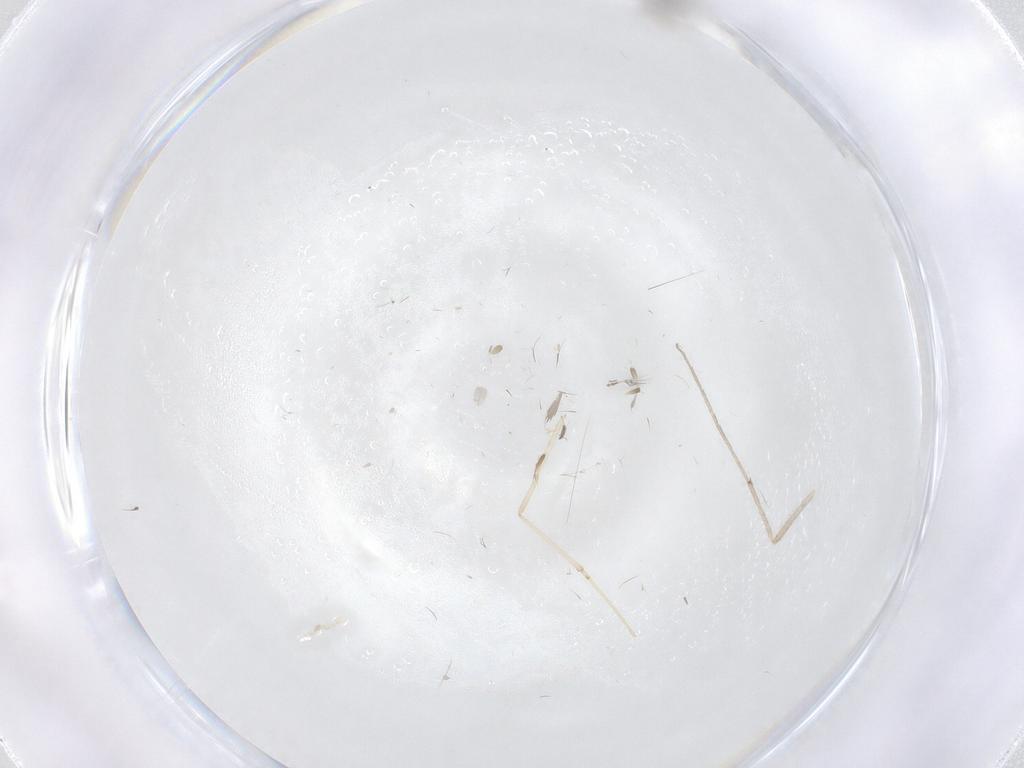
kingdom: Animalia
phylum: Arthropoda
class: Insecta
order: Diptera
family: Cecidomyiidae
